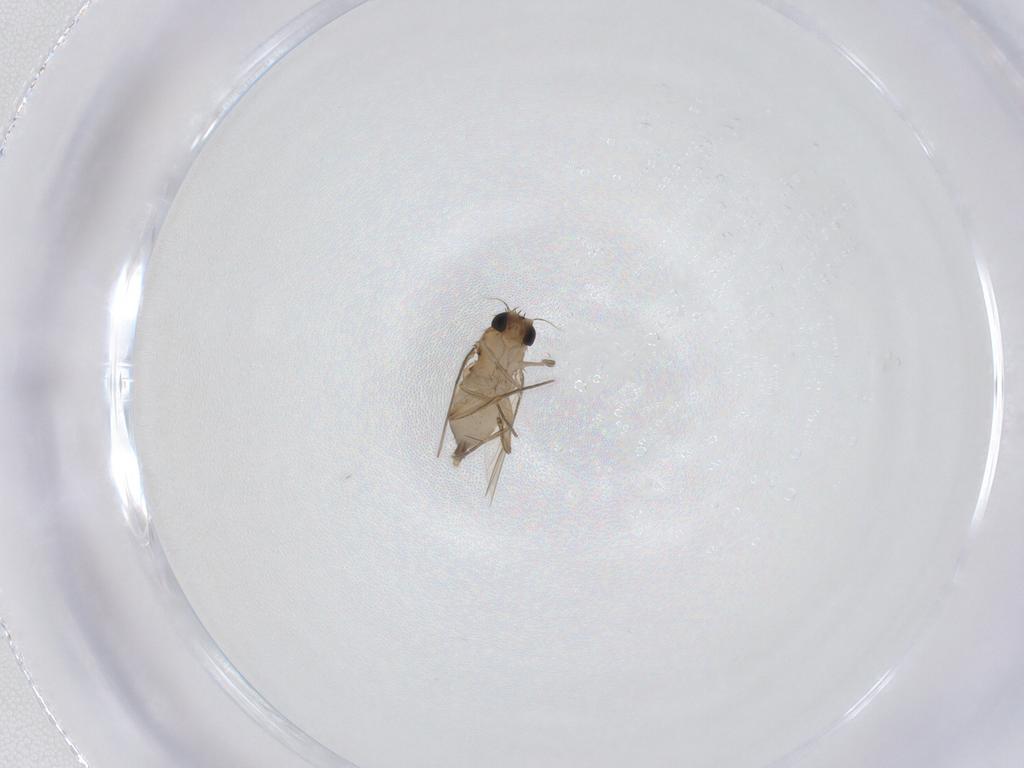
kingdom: Animalia
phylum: Arthropoda
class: Insecta
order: Diptera
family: Phoridae
